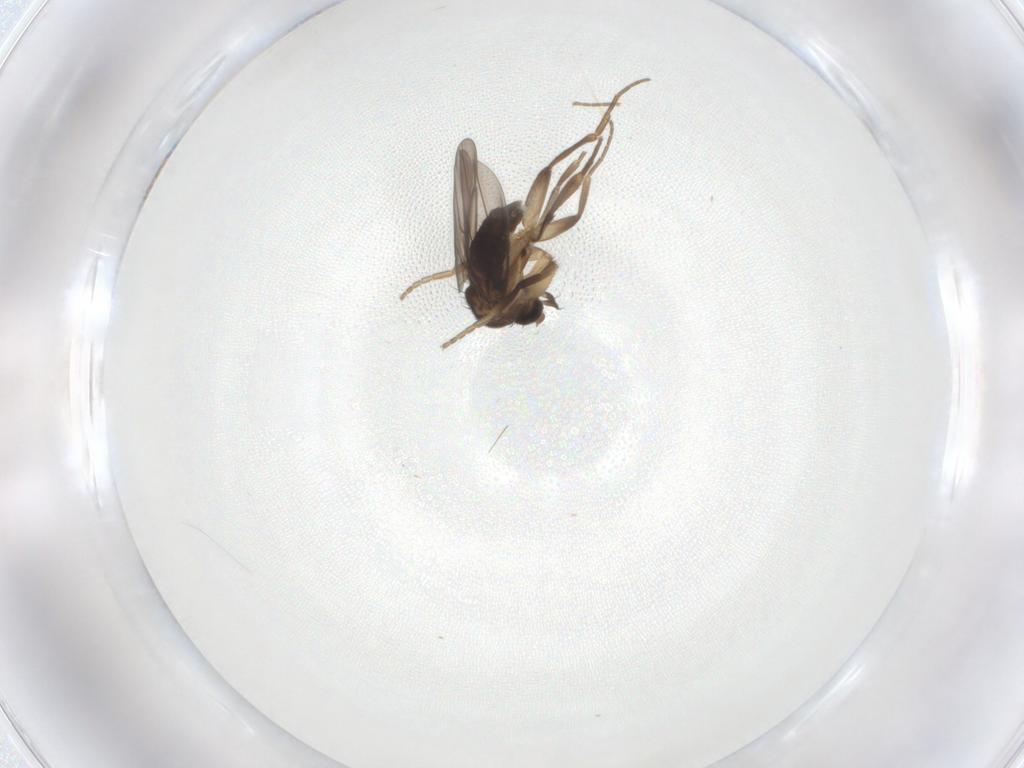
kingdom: Animalia
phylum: Arthropoda
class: Insecta
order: Diptera
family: Phoridae
